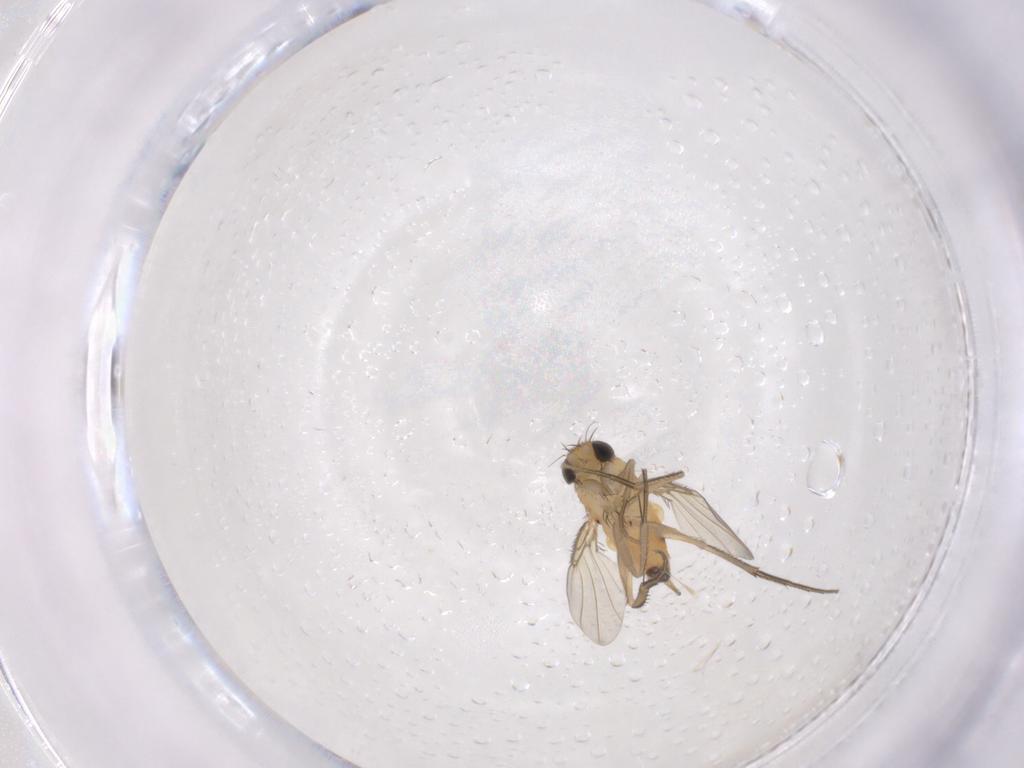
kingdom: Animalia
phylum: Arthropoda
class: Insecta
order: Diptera
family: Phoridae
